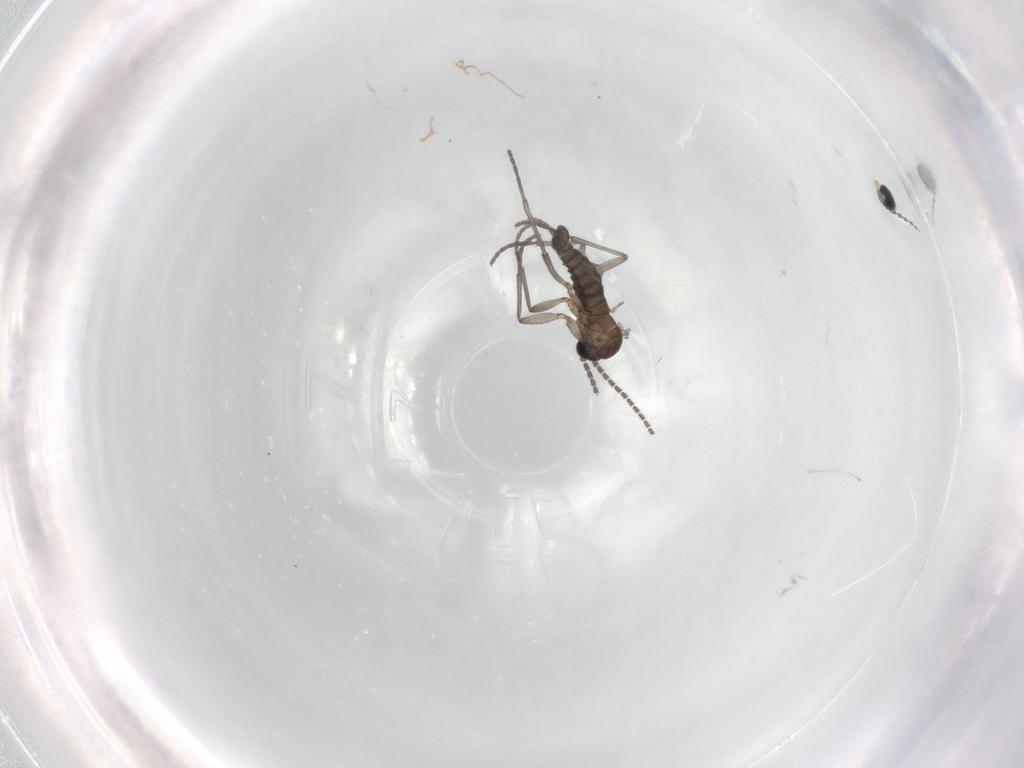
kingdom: Animalia
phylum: Arthropoda
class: Insecta
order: Diptera
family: Sciaridae
